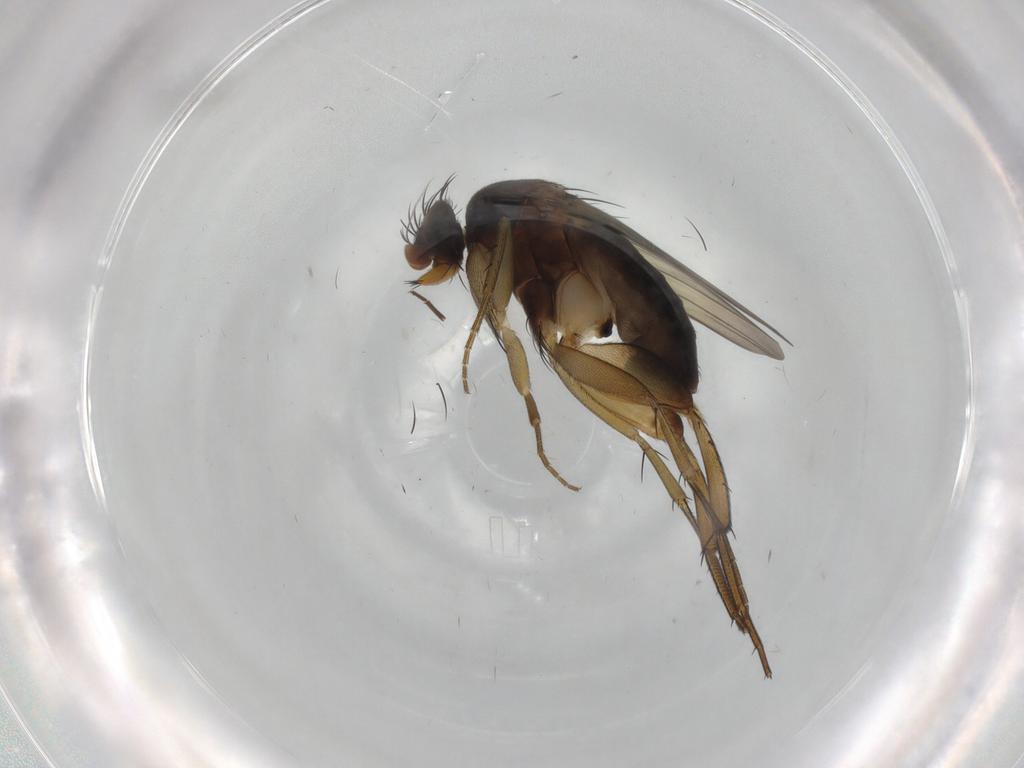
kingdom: Animalia
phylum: Arthropoda
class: Insecta
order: Diptera
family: Phoridae
